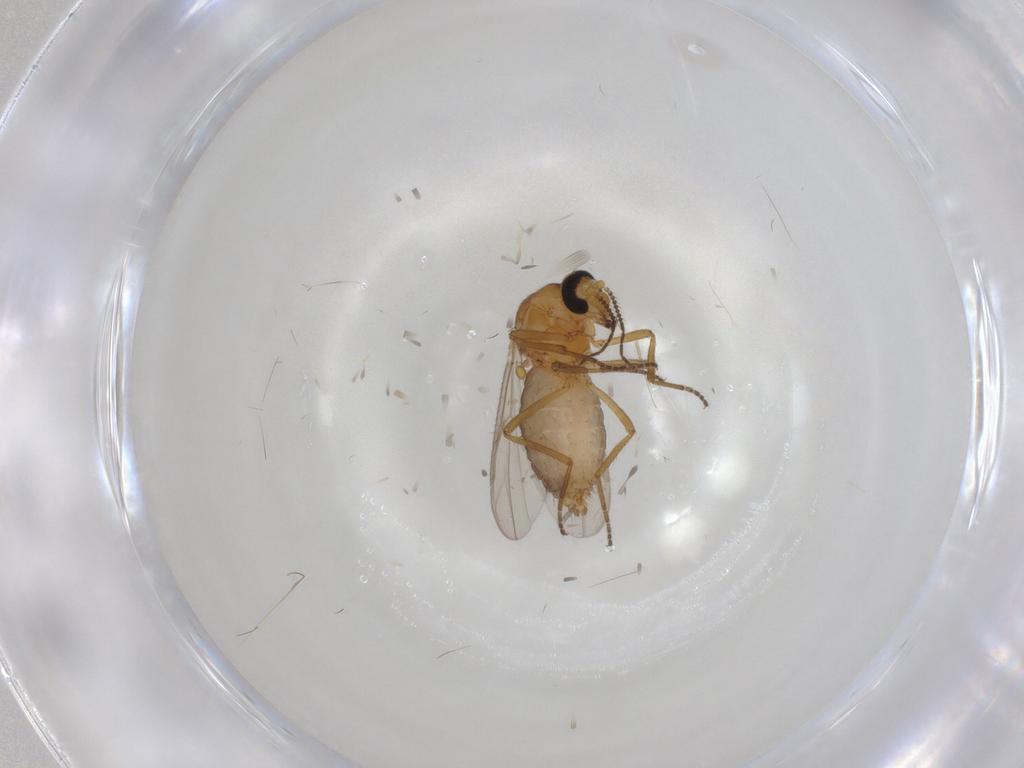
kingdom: Animalia
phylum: Arthropoda
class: Insecta
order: Diptera
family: Ceratopogonidae
